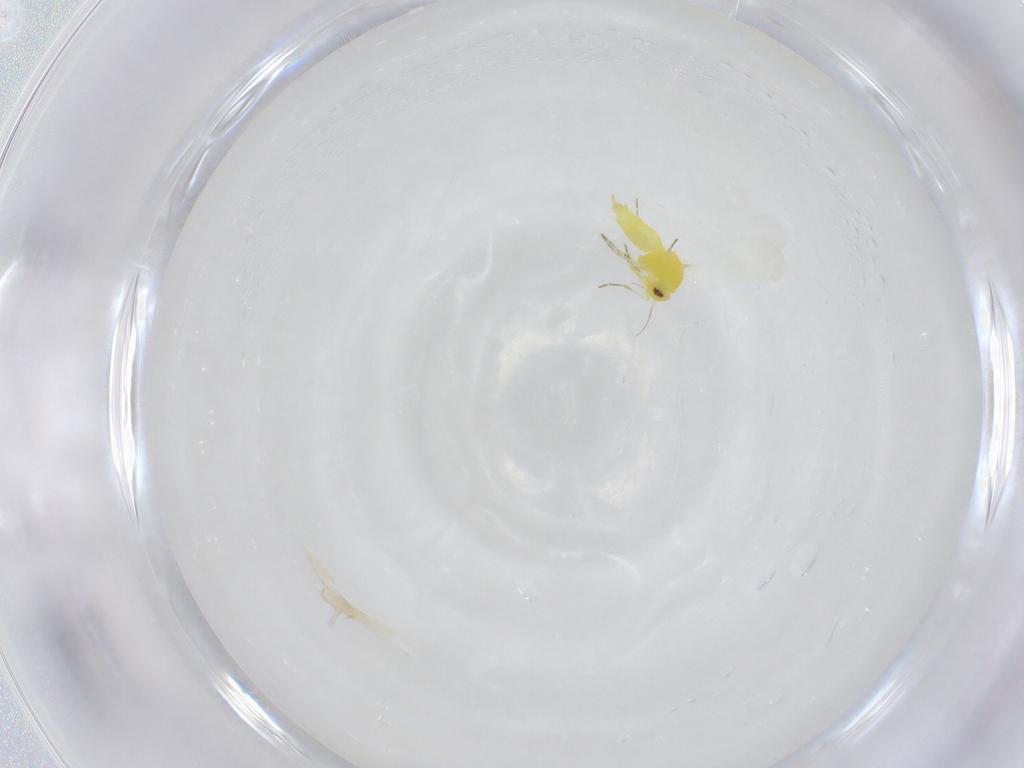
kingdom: Animalia
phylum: Arthropoda
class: Insecta
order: Hemiptera
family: Aleyrodidae
